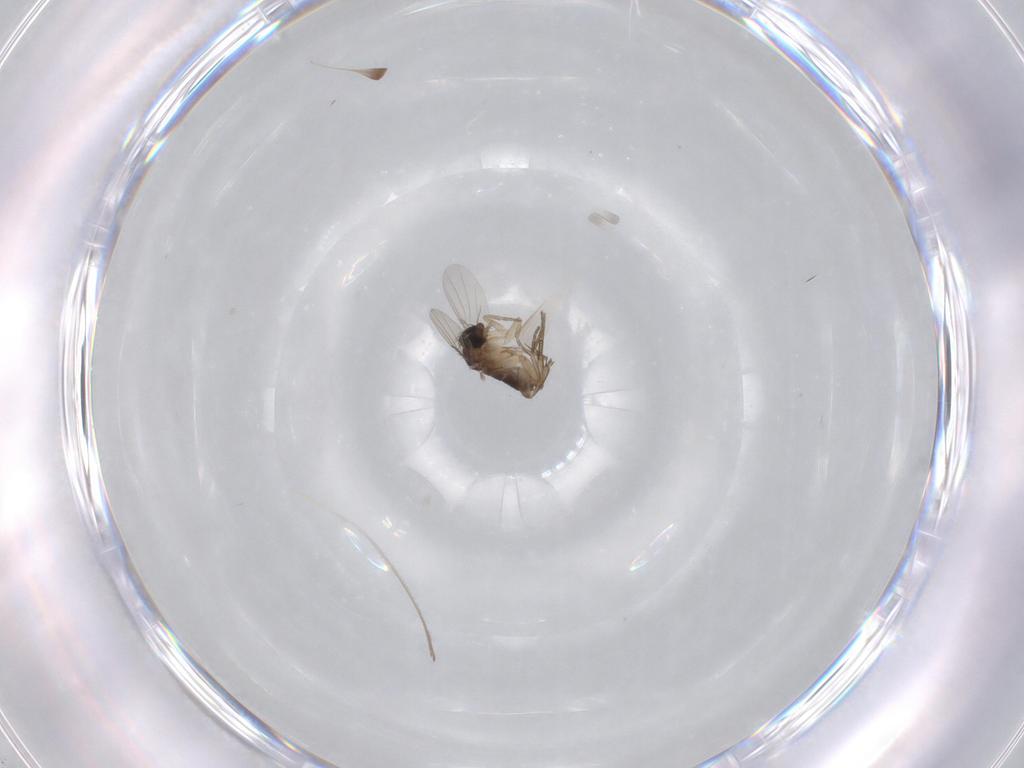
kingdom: Animalia
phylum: Arthropoda
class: Insecta
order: Diptera
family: Phoridae
